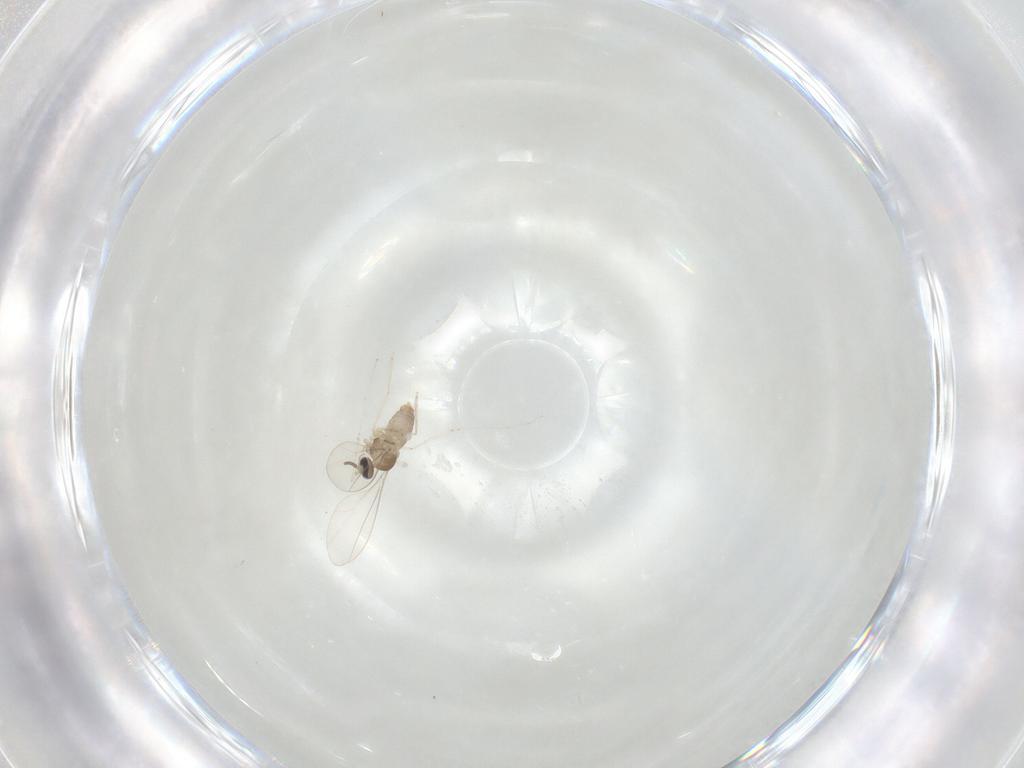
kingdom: Animalia
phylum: Arthropoda
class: Insecta
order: Diptera
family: Cecidomyiidae
